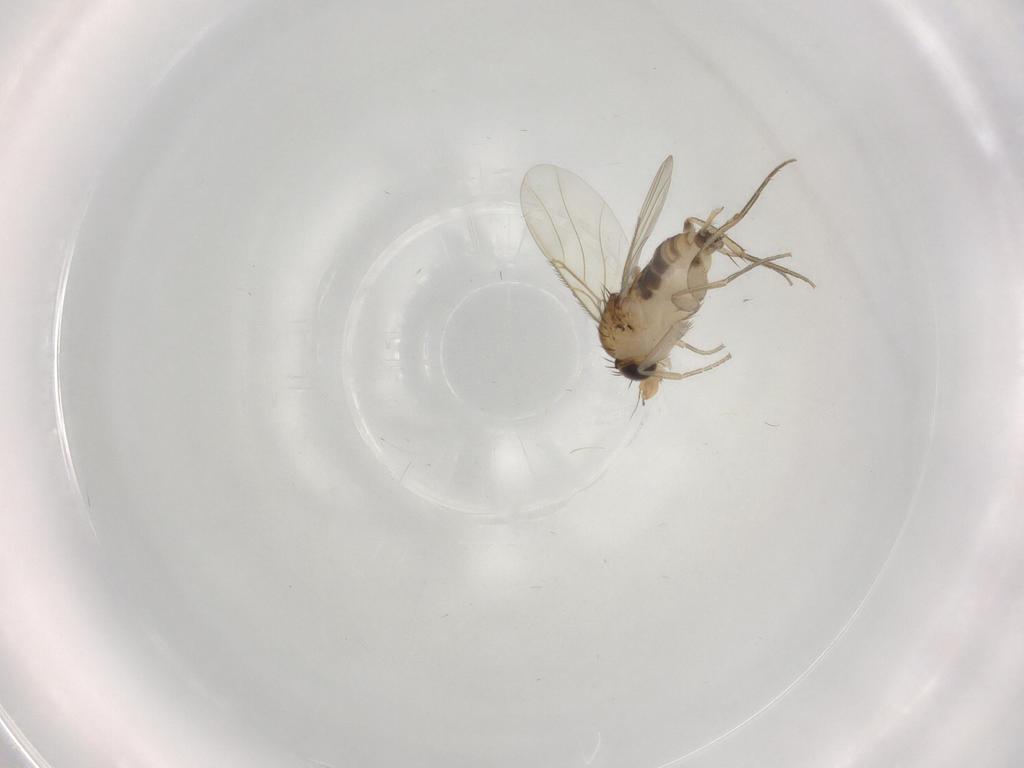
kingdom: Animalia
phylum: Arthropoda
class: Insecta
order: Diptera
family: Phoridae
